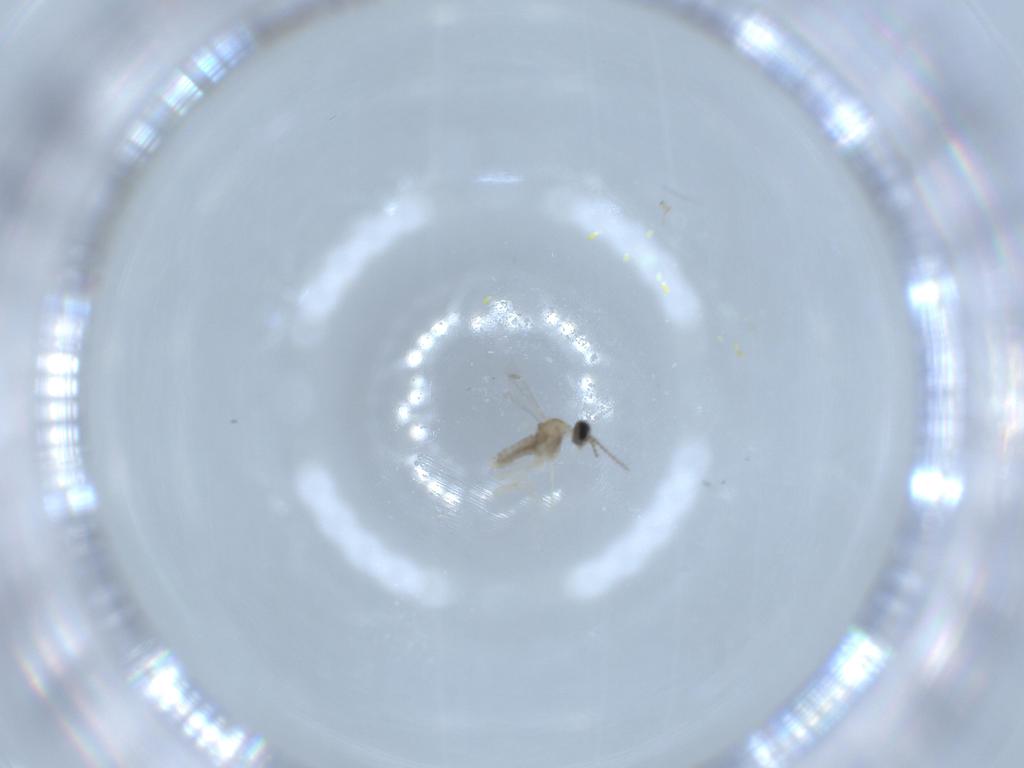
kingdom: Animalia
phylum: Arthropoda
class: Insecta
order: Diptera
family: Cecidomyiidae
